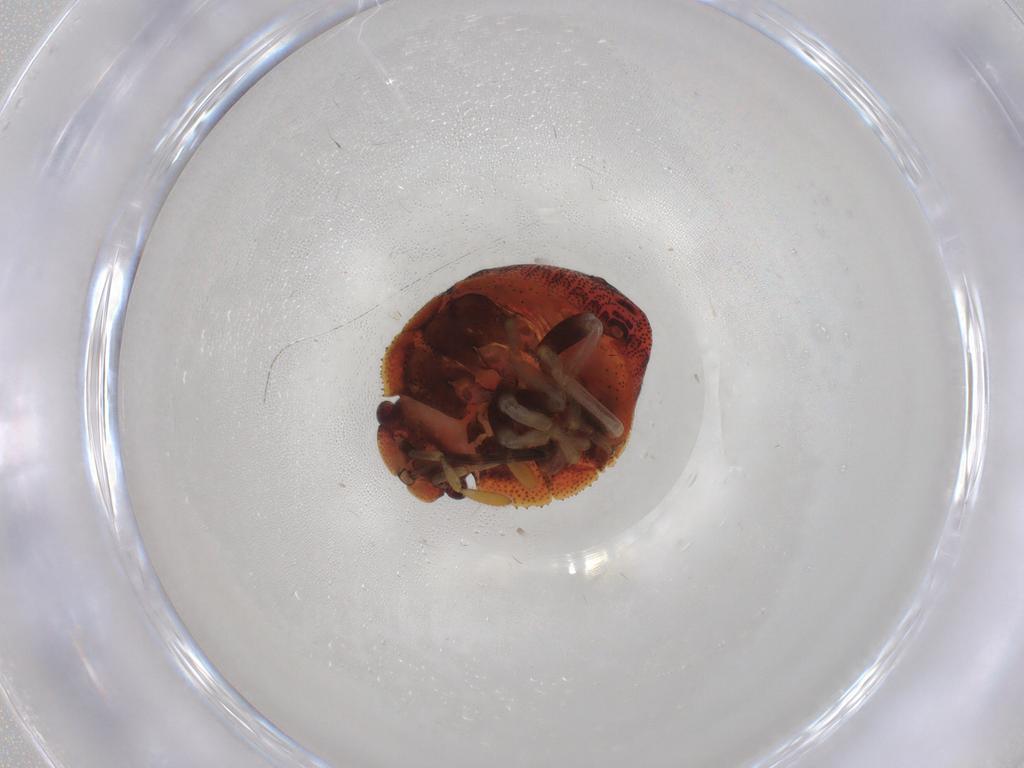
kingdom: Animalia
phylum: Arthropoda
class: Insecta
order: Hemiptera
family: Pentatomidae
